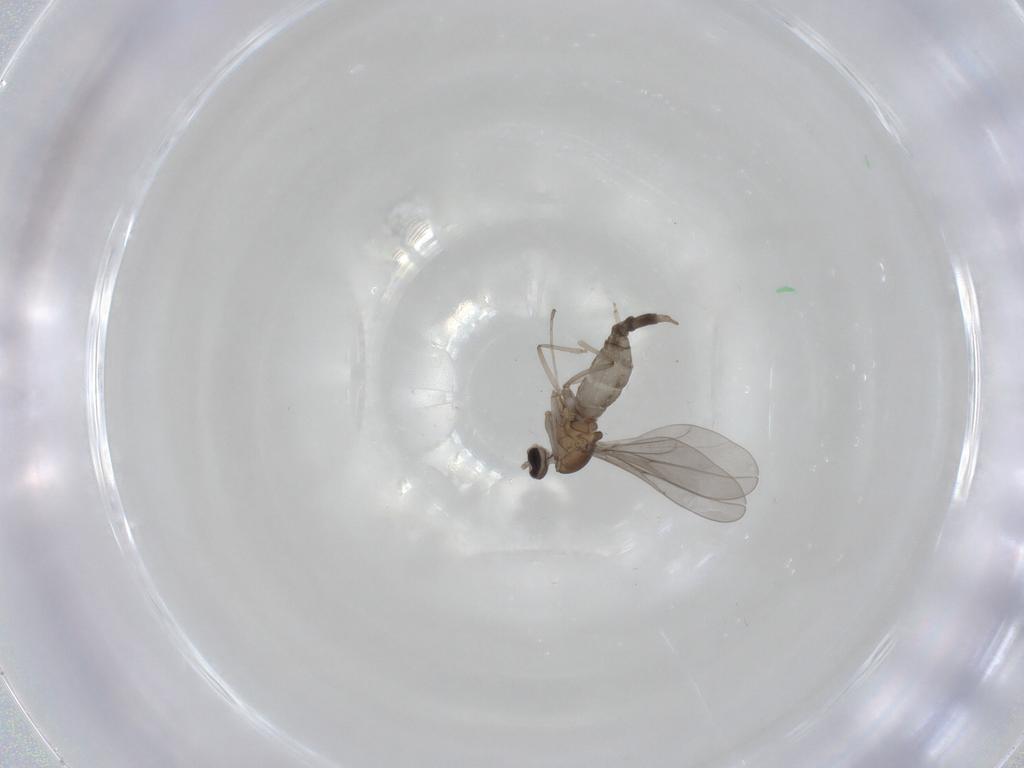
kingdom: Animalia
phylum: Arthropoda
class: Insecta
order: Diptera
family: Cecidomyiidae
